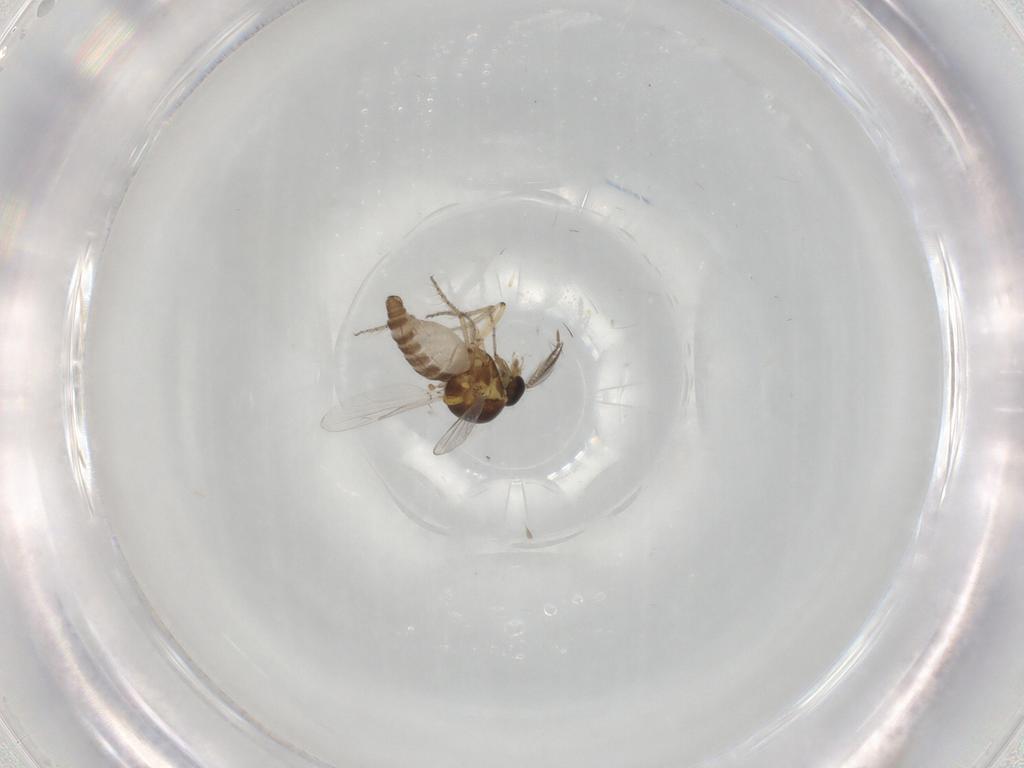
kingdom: Animalia
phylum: Arthropoda
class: Insecta
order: Diptera
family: Ceratopogonidae
